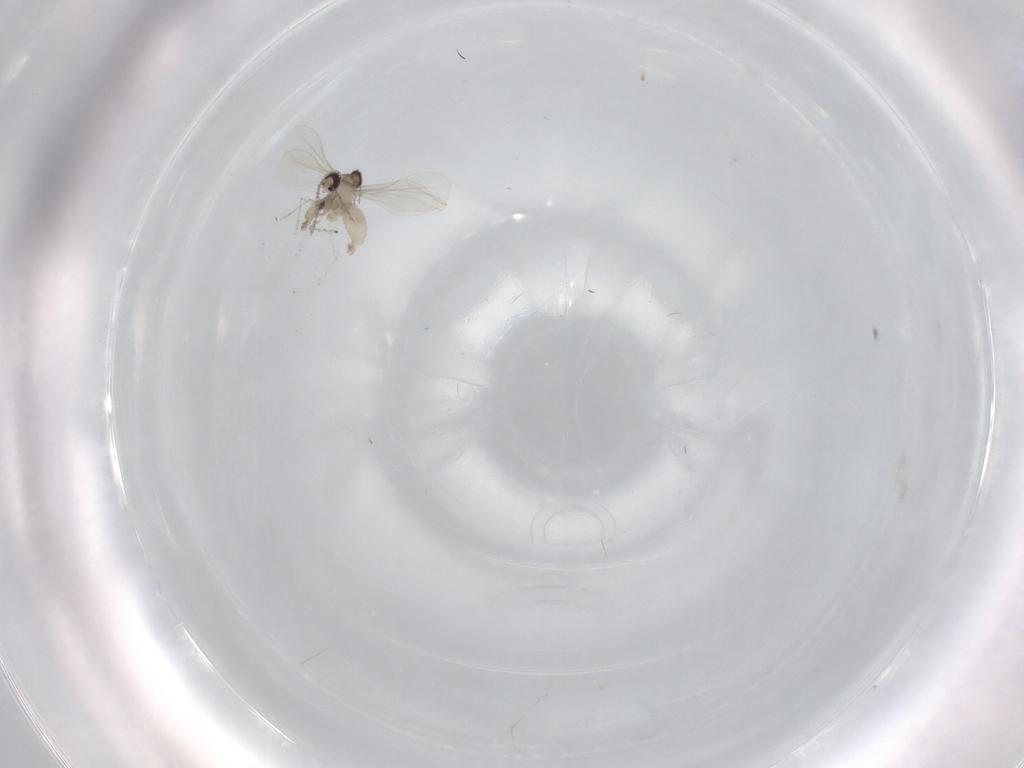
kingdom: Animalia
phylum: Arthropoda
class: Insecta
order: Diptera
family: Cecidomyiidae
